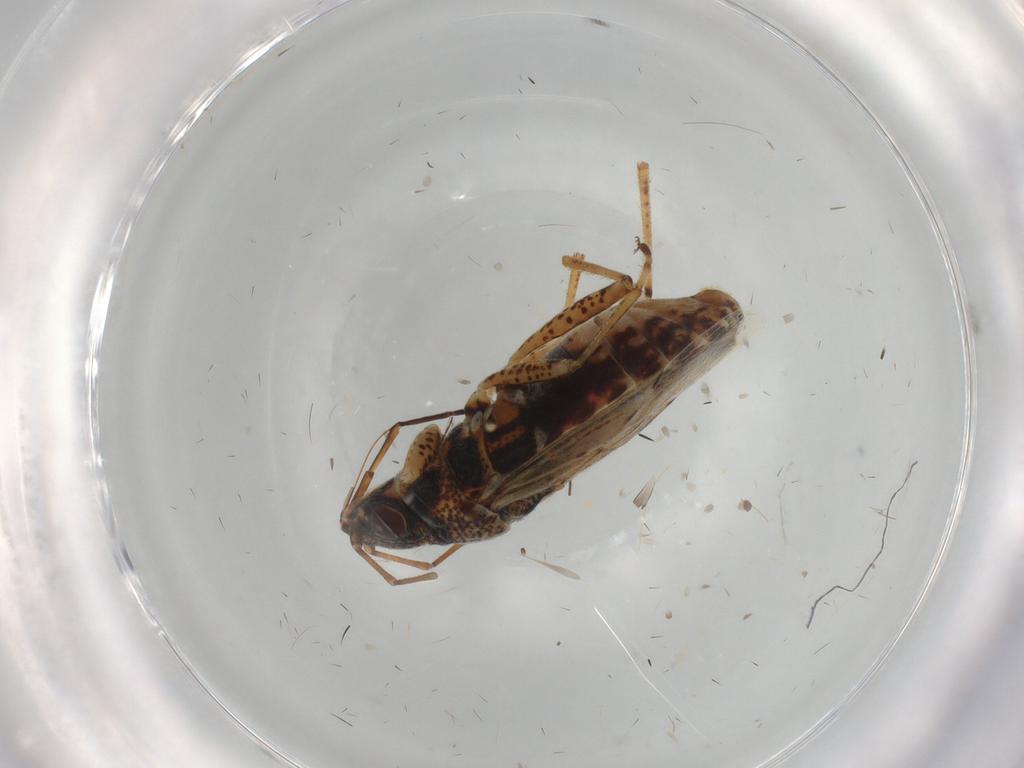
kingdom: Animalia
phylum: Arthropoda
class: Insecta
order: Hemiptera
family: Lygaeidae
